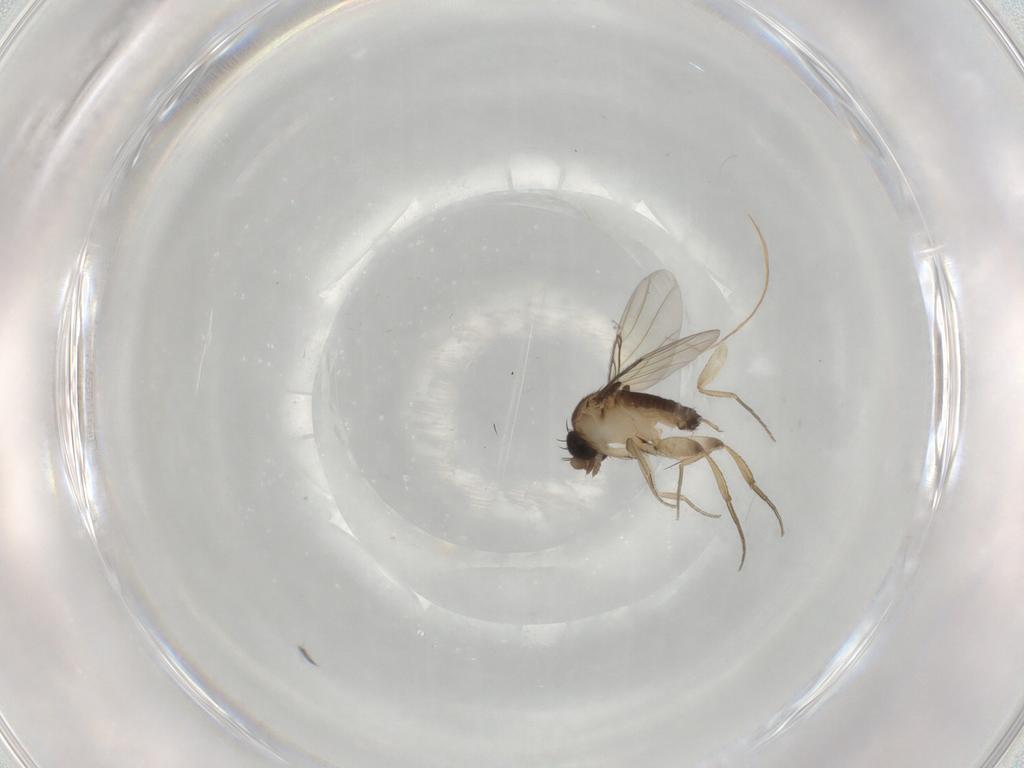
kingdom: Animalia
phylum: Arthropoda
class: Insecta
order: Diptera
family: Phoridae
